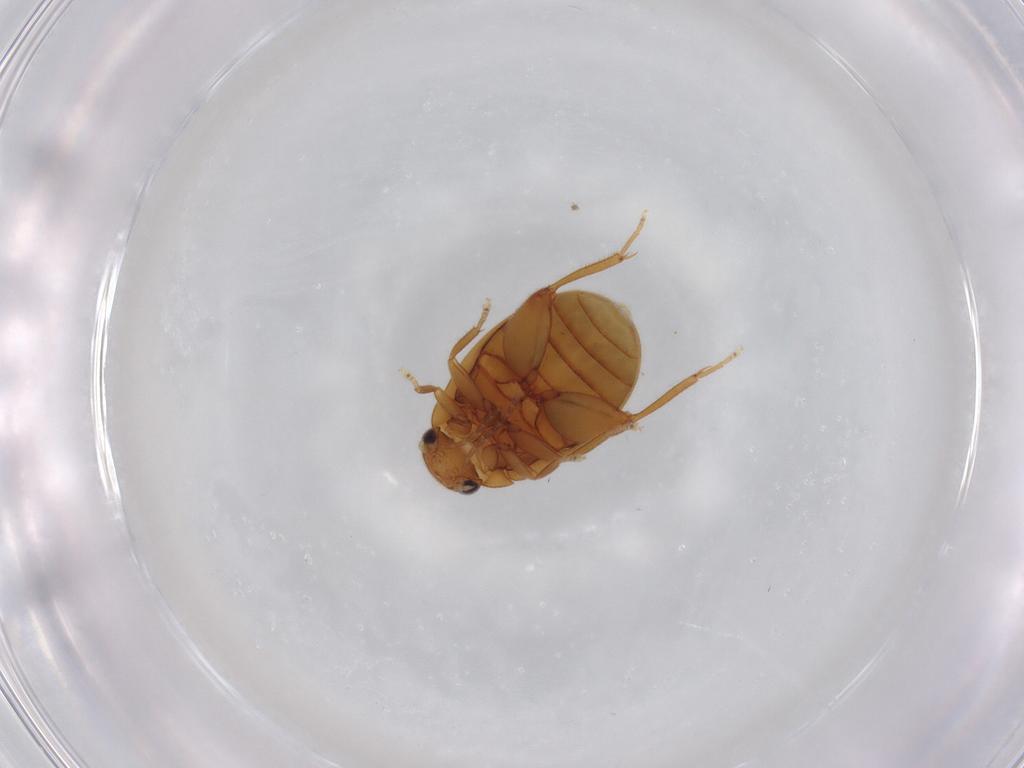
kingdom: Animalia
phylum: Arthropoda
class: Insecta
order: Coleoptera
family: Scirtidae
